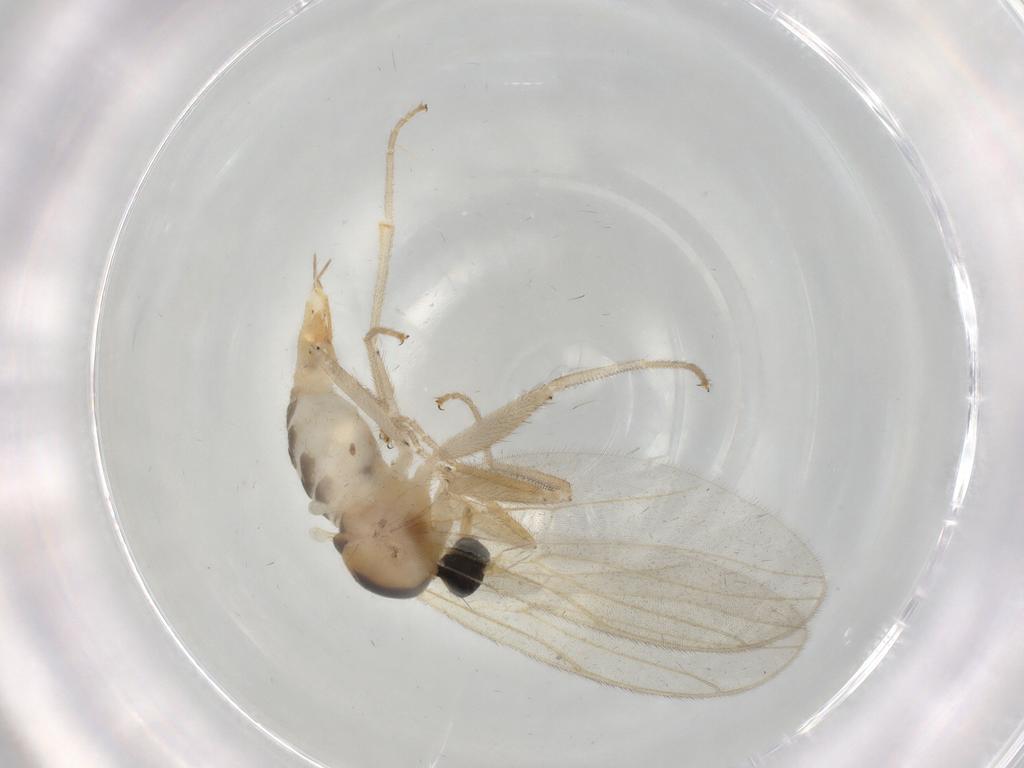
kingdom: Animalia
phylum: Arthropoda
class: Insecta
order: Diptera
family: Hybotidae
